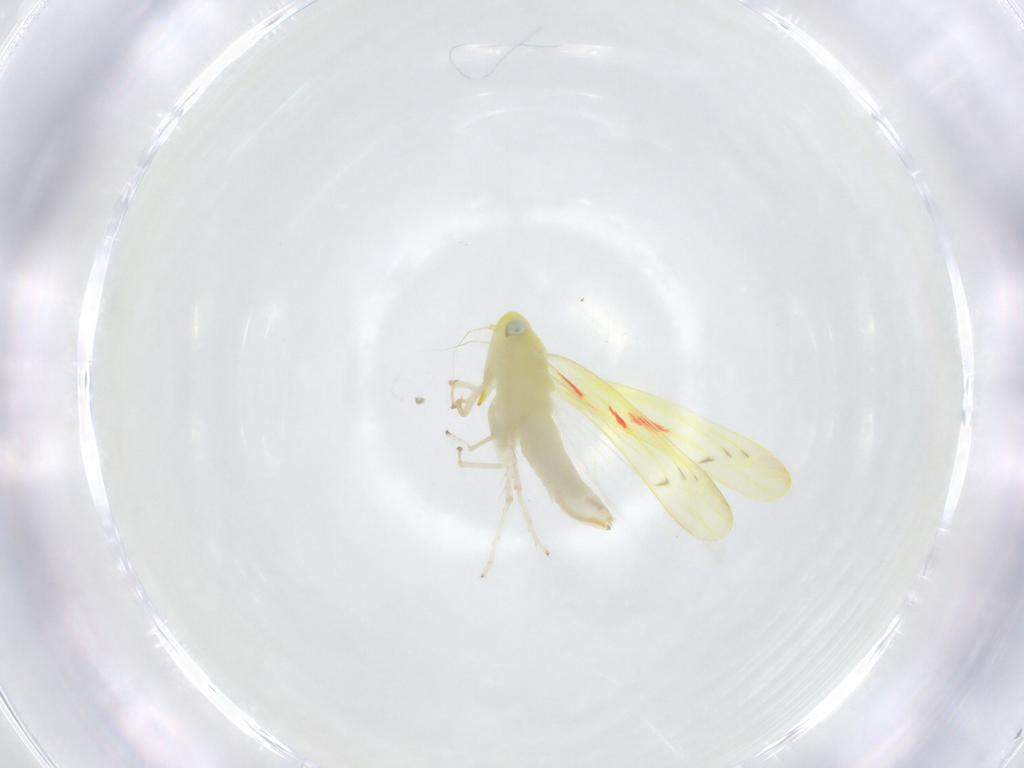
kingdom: Animalia
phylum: Arthropoda
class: Insecta
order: Hemiptera
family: Cicadellidae
